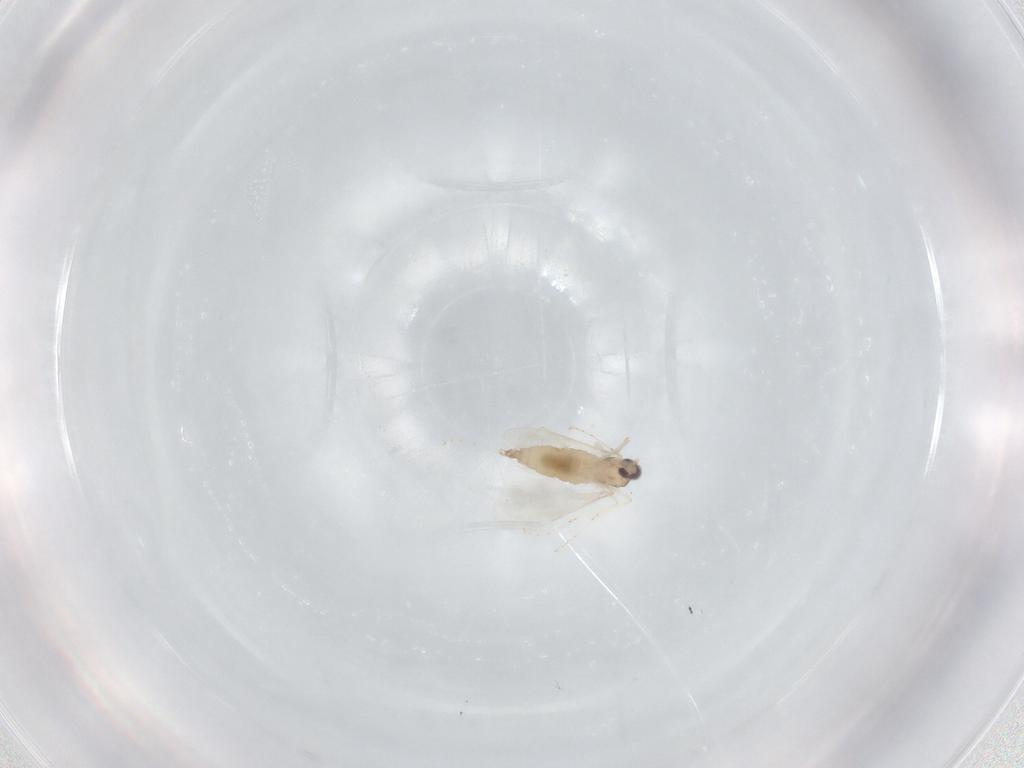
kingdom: Animalia
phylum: Arthropoda
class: Insecta
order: Diptera
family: Cecidomyiidae
